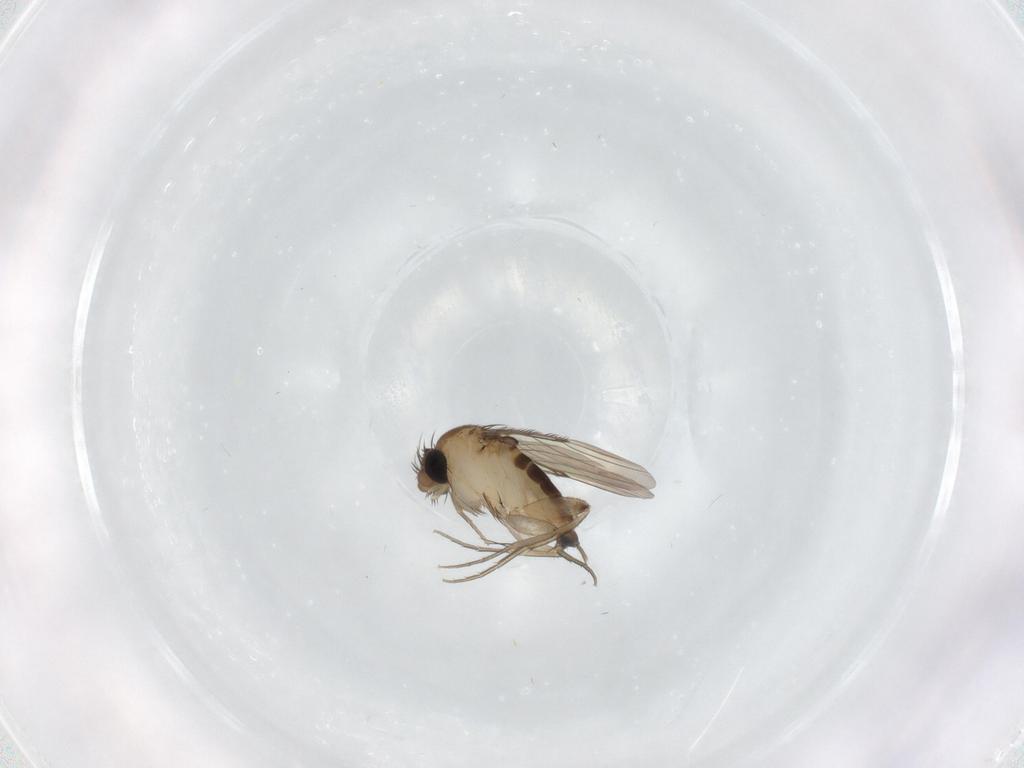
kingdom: Animalia
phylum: Arthropoda
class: Insecta
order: Diptera
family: Phoridae
